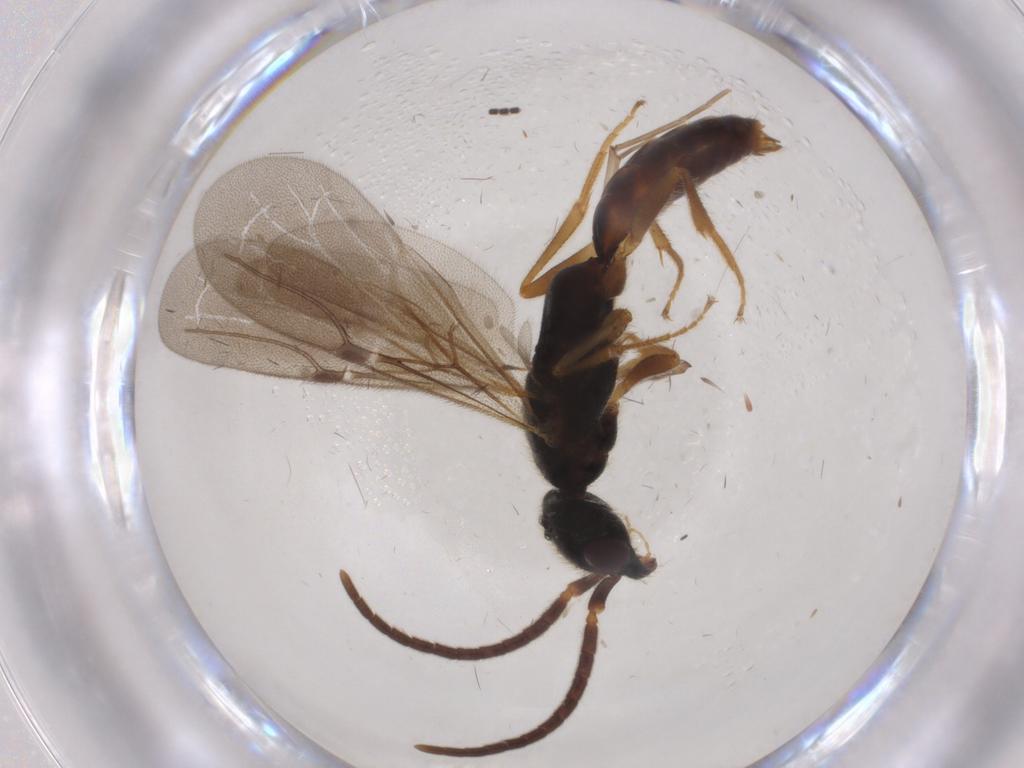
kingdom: Animalia
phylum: Arthropoda
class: Insecta
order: Hymenoptera
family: Bethylidae
